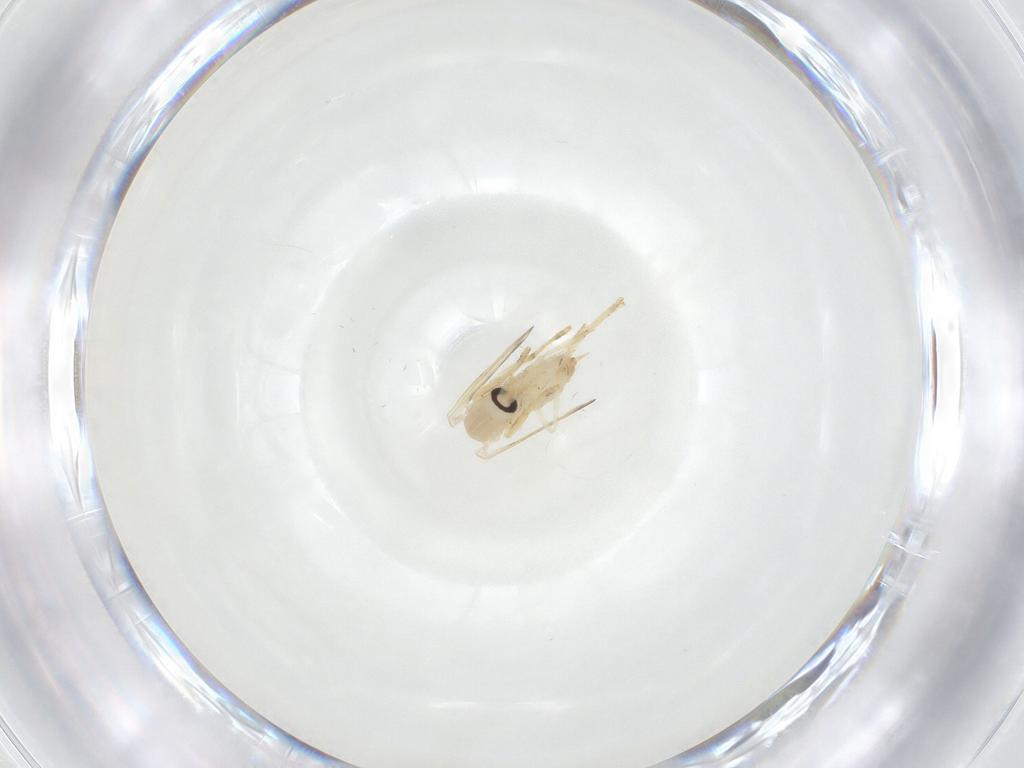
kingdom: Animalia
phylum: Arthropoda
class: Insecta
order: Diptera
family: Psychodidae
